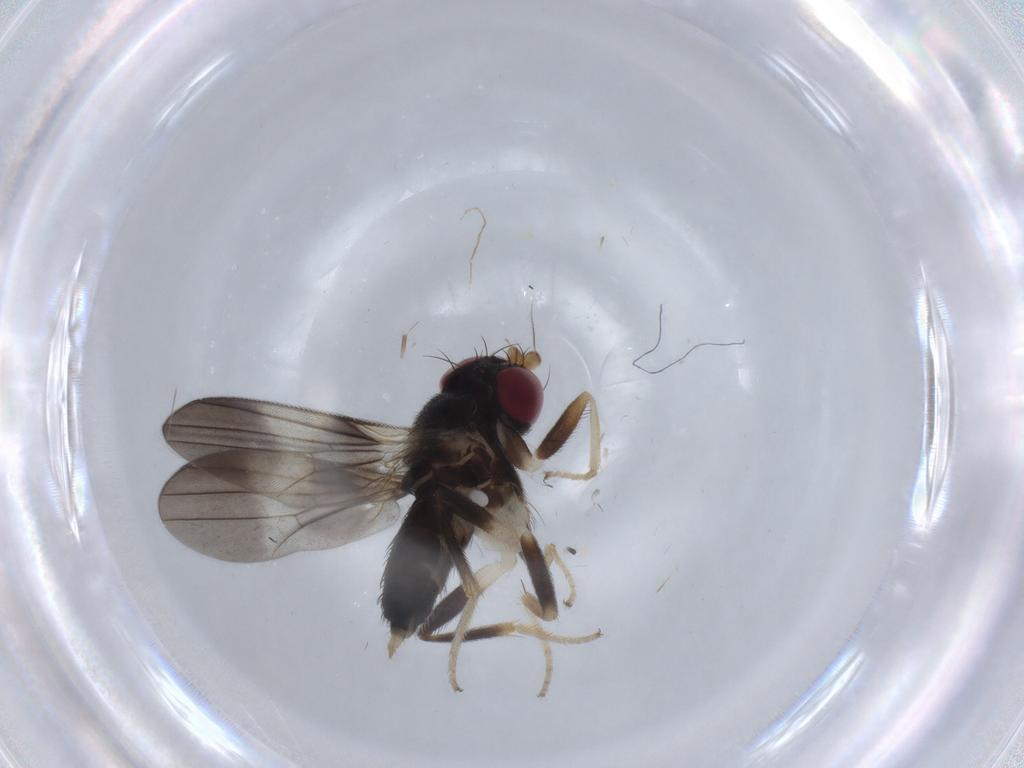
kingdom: Animalia
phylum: Arthropoda
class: Insecta
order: Diptera
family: Clusiidae
